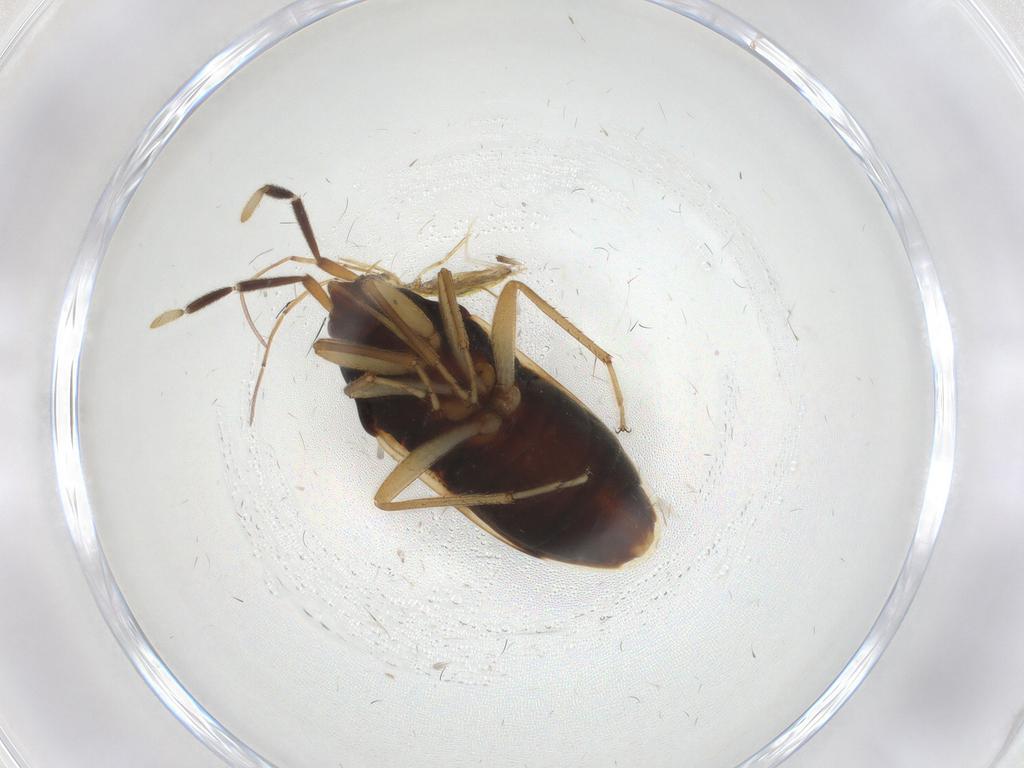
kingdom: Animalia
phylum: Arthropoda
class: Insecta
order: Hemiptera
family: Rhyparochromidae
